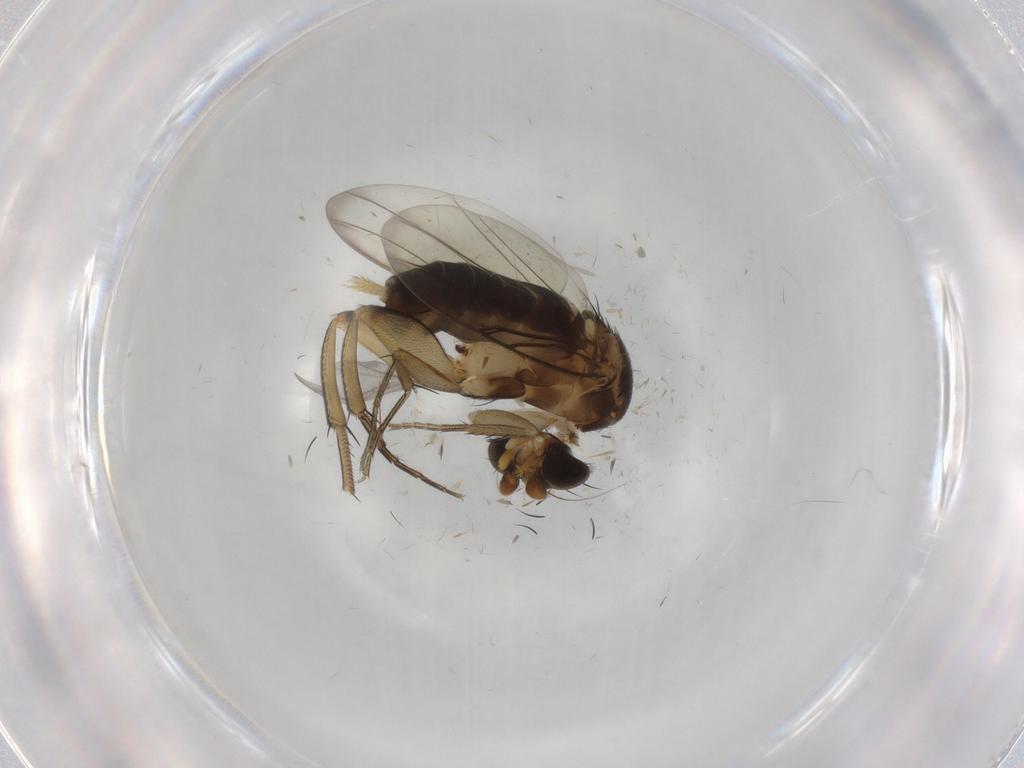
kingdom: Animalia
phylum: Arthropoda
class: Insecta
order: Diptera
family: Phoridae
